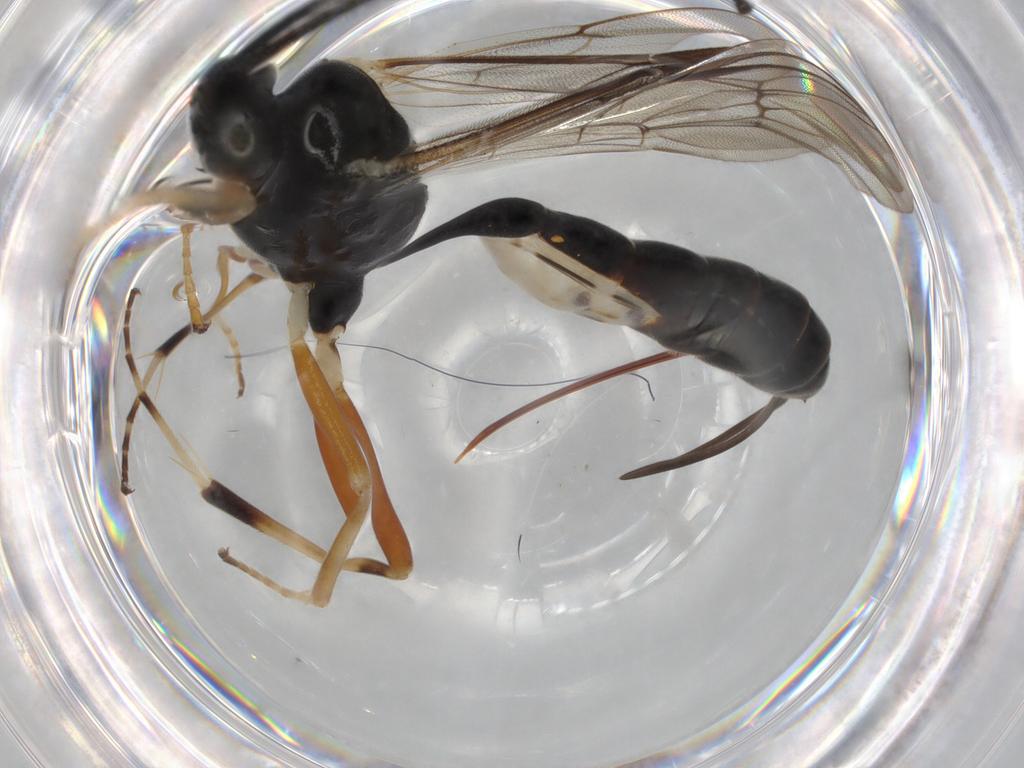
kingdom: Animalia
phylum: Arthropoda
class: Insecta
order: Hymenoptera
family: Ichneumonidae
